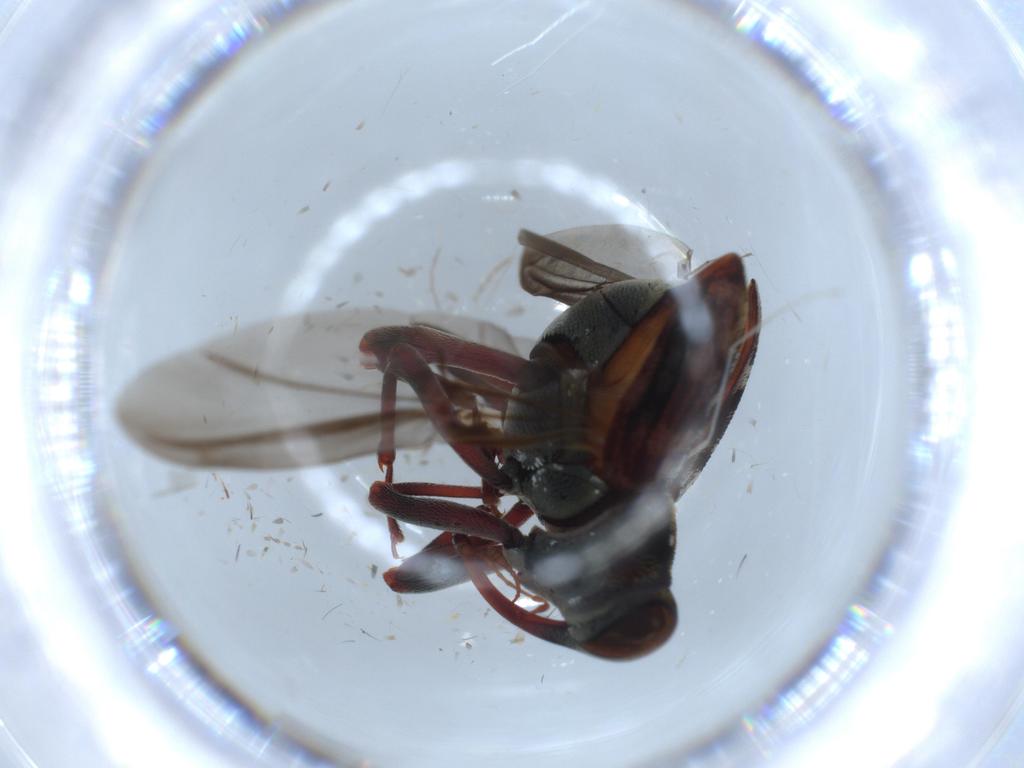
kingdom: Animalia
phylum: Arthropoda
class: Insecta
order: Coleoptera
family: Curculionidae
